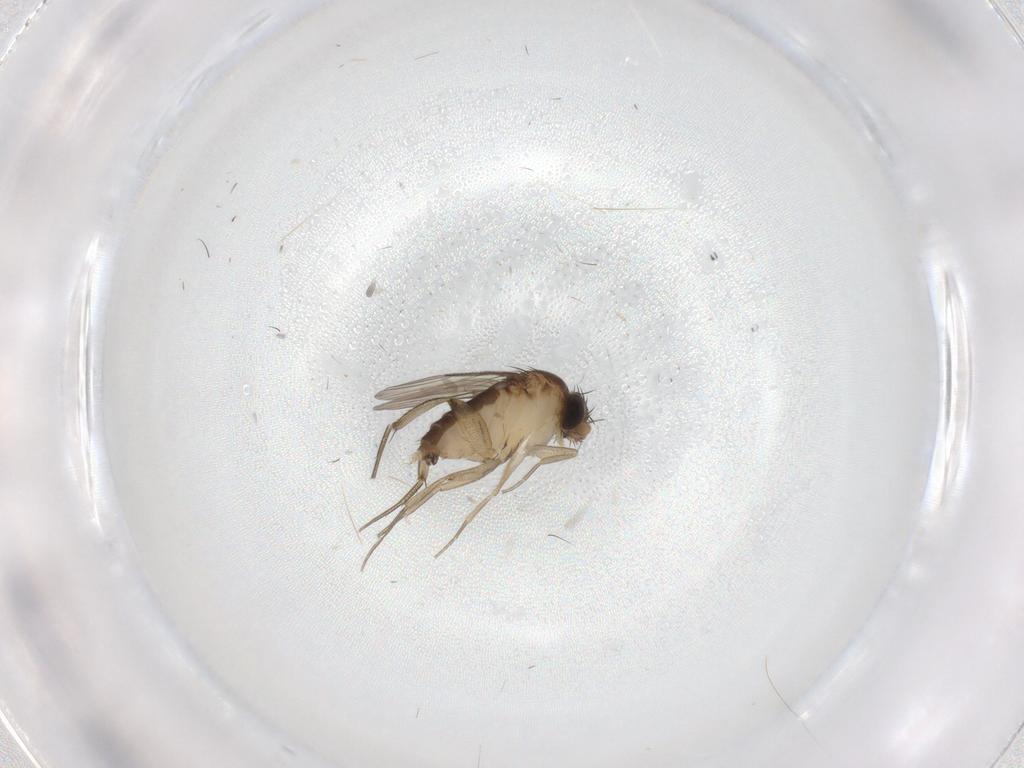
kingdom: Animalia
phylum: Arthropoda
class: Insecta
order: Diptera
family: Phoridae
